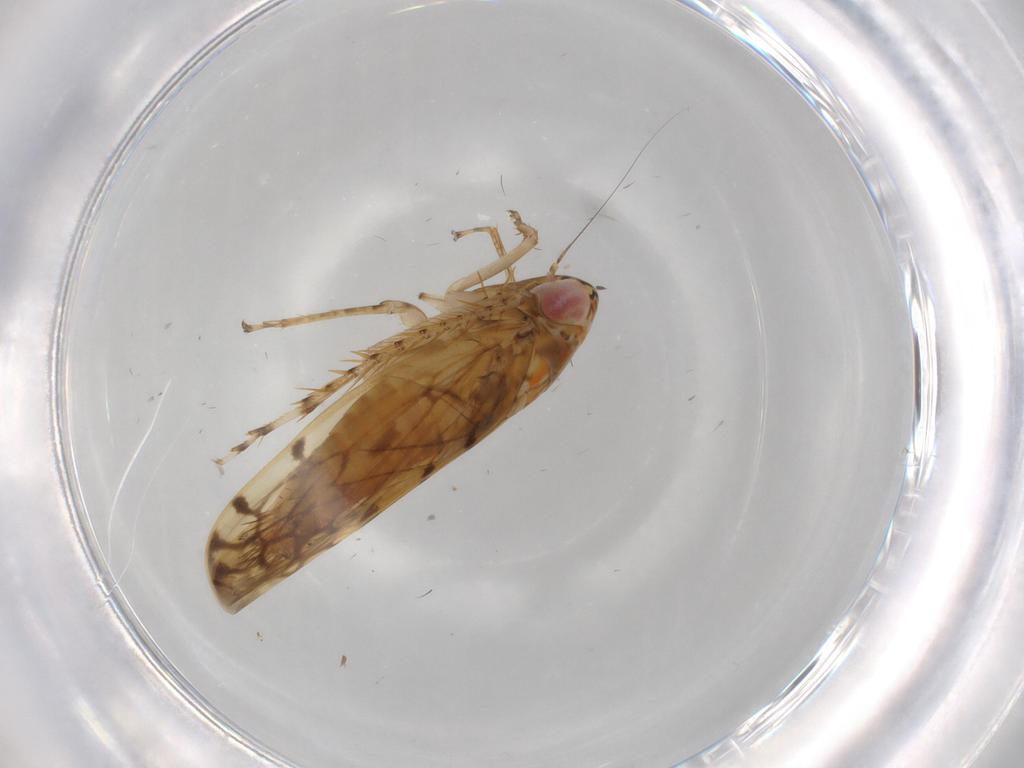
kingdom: Animalia
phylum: Arthropoda
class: Insecta
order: Hemiptera
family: Cicadellidae
